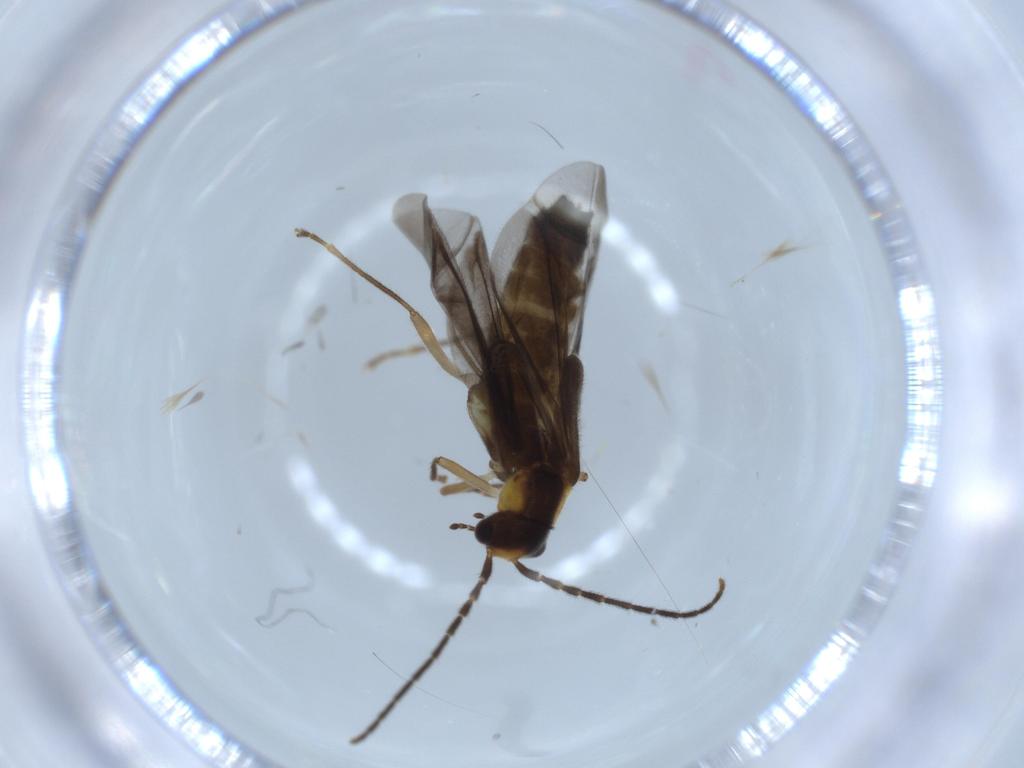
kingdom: Animalia
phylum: Arthropoda
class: Insecta
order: Coleoptera
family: Cantharidae
